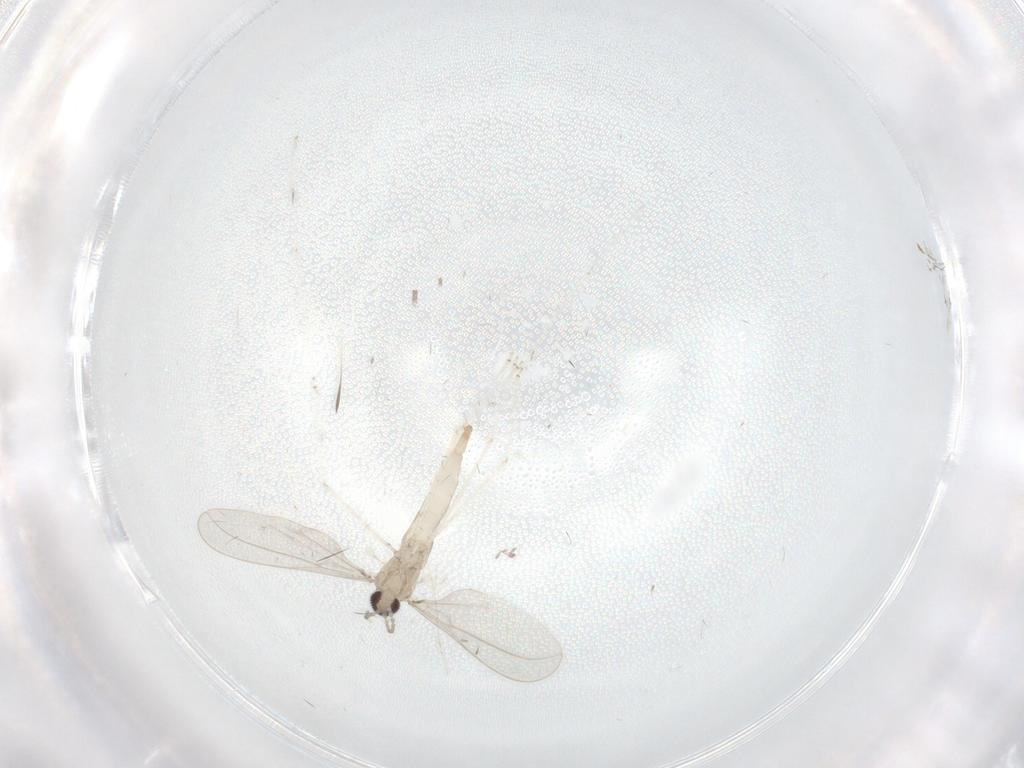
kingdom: Animalia
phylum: Arthropoda
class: Insecta
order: Diptera
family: Cecidomyiidae
